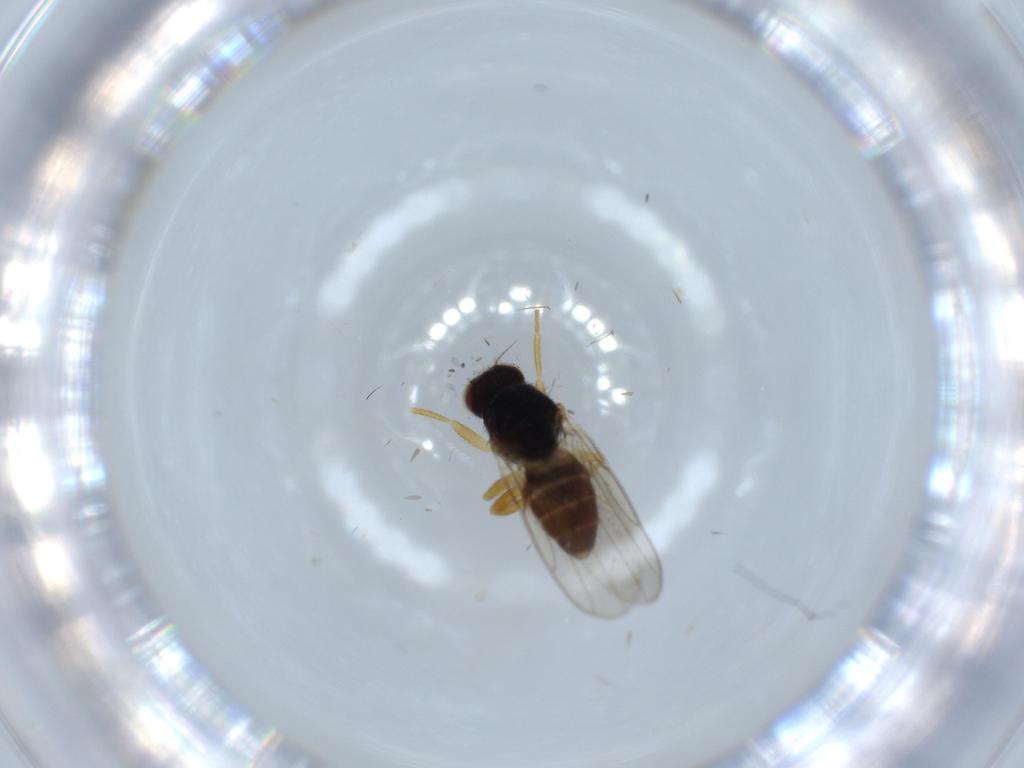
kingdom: Animalia
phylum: Arthropoda
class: Insecta
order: Diptera
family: Chloropidae
